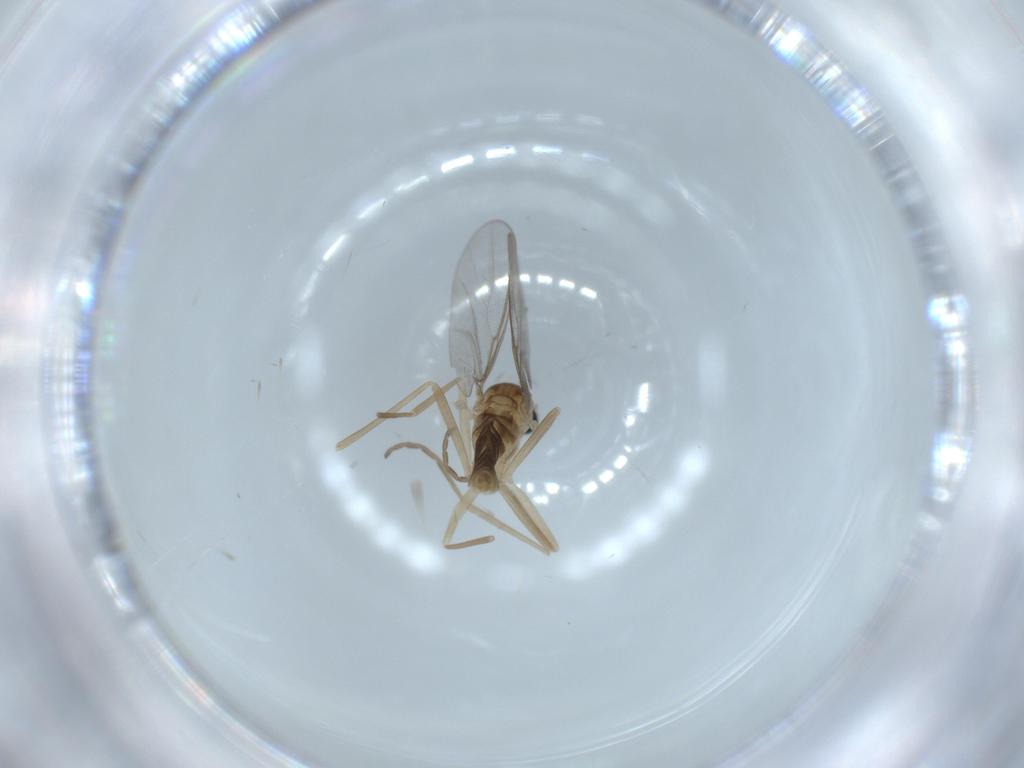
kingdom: Animalia
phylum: Arthropoda
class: Insecta
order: Diptera
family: Cecidomyiidae
